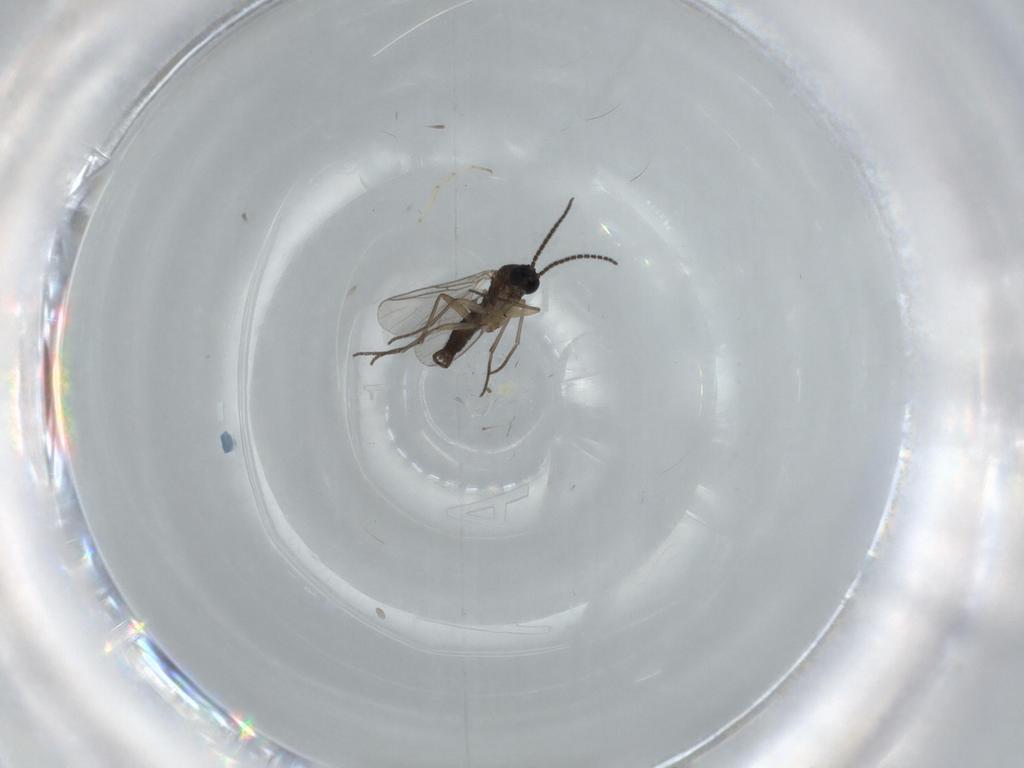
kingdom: Animalia
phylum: Arthropoda
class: Insecta
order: Diptera
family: Sciaridae
